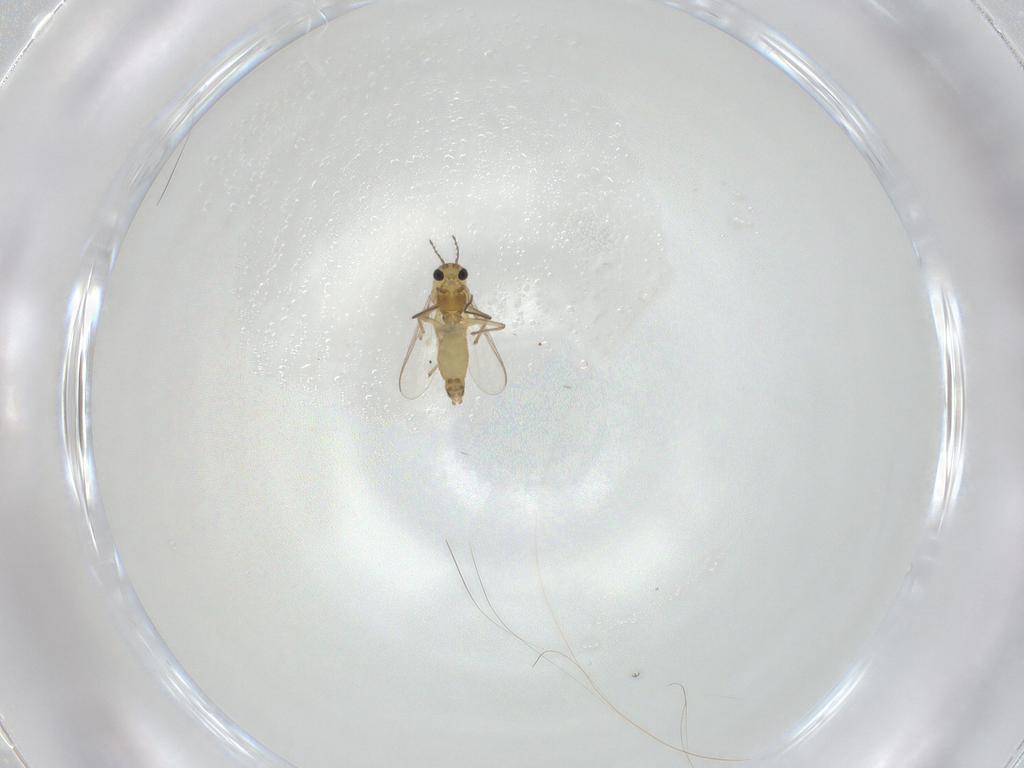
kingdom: Animalia
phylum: Arthropoda
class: Insecta
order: Diptera
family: Chironomidae
